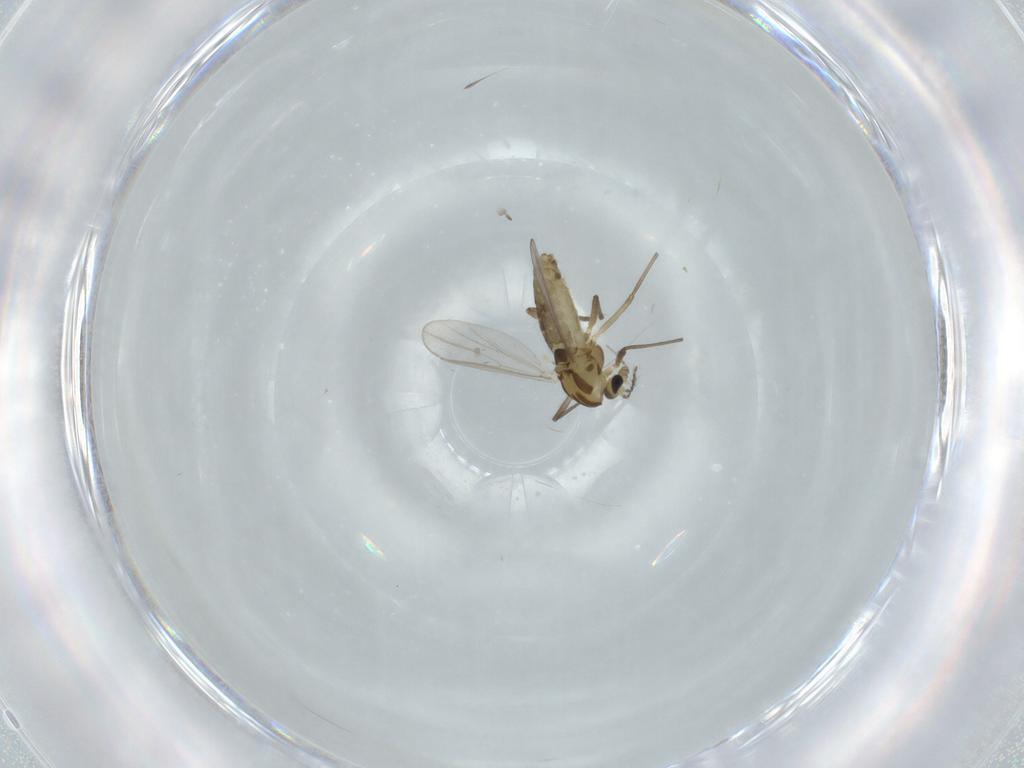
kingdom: Animalia
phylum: Arthropoda
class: Insecta
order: Diptera
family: Chironomidae
